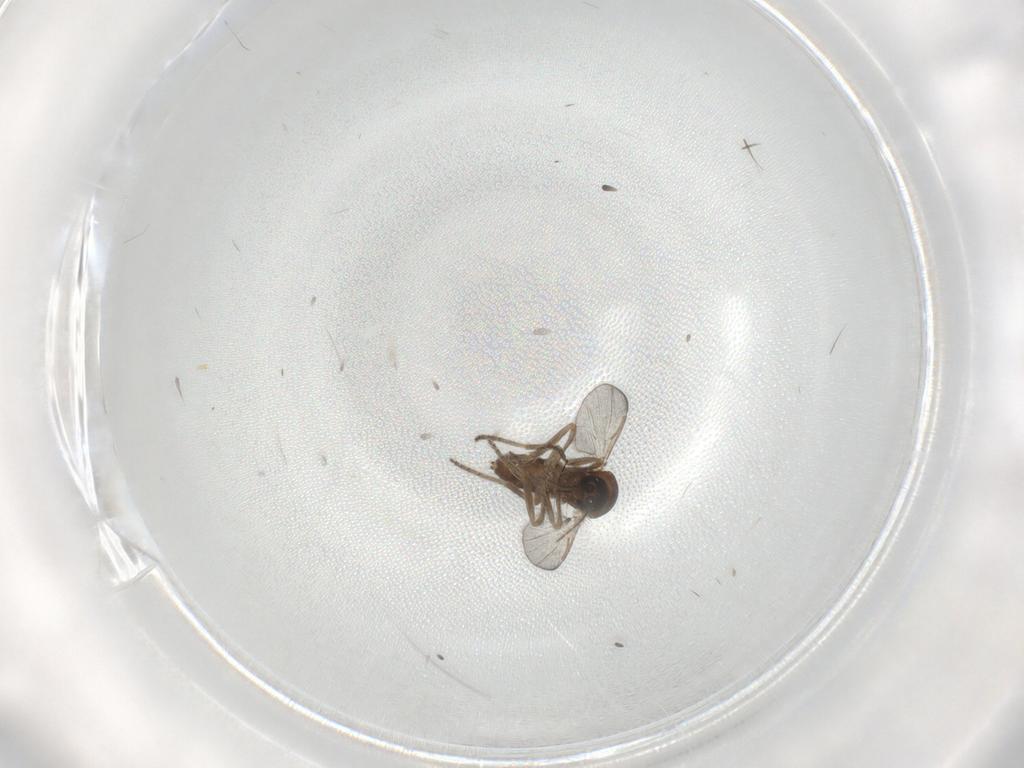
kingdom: Animalia
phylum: Arthropoda
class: Insecta
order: Diptera
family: Ceratopogonidae
